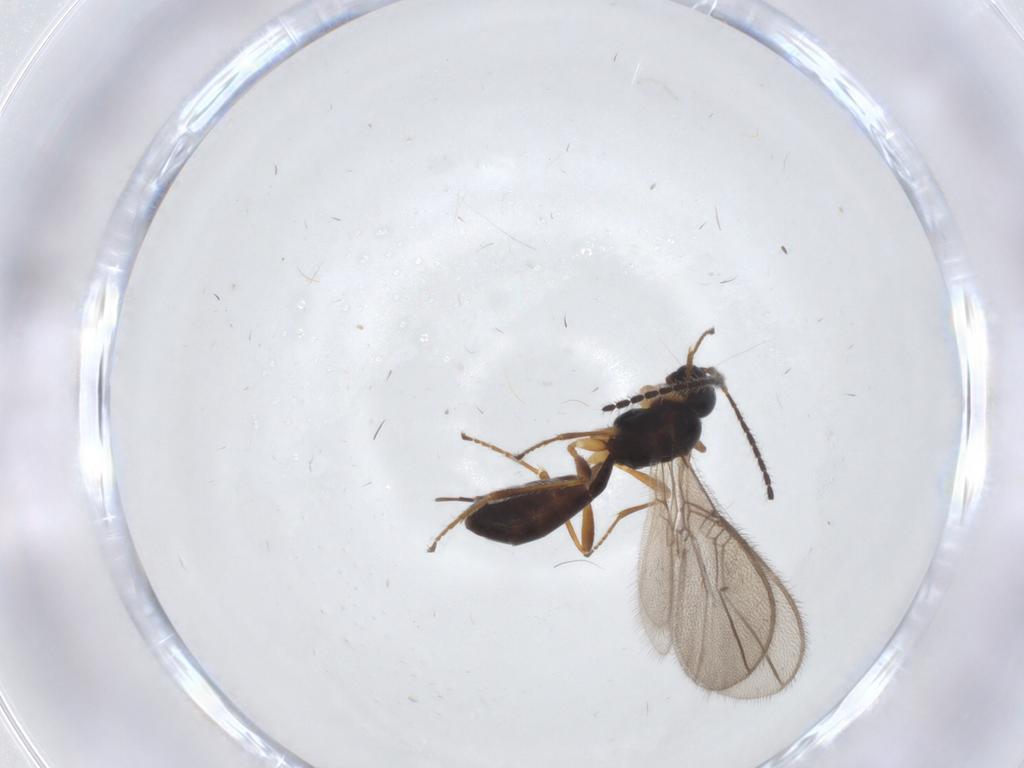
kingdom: Animalia
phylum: Arthropoda
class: Insecta
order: Hymenoptera
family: Braconidae
